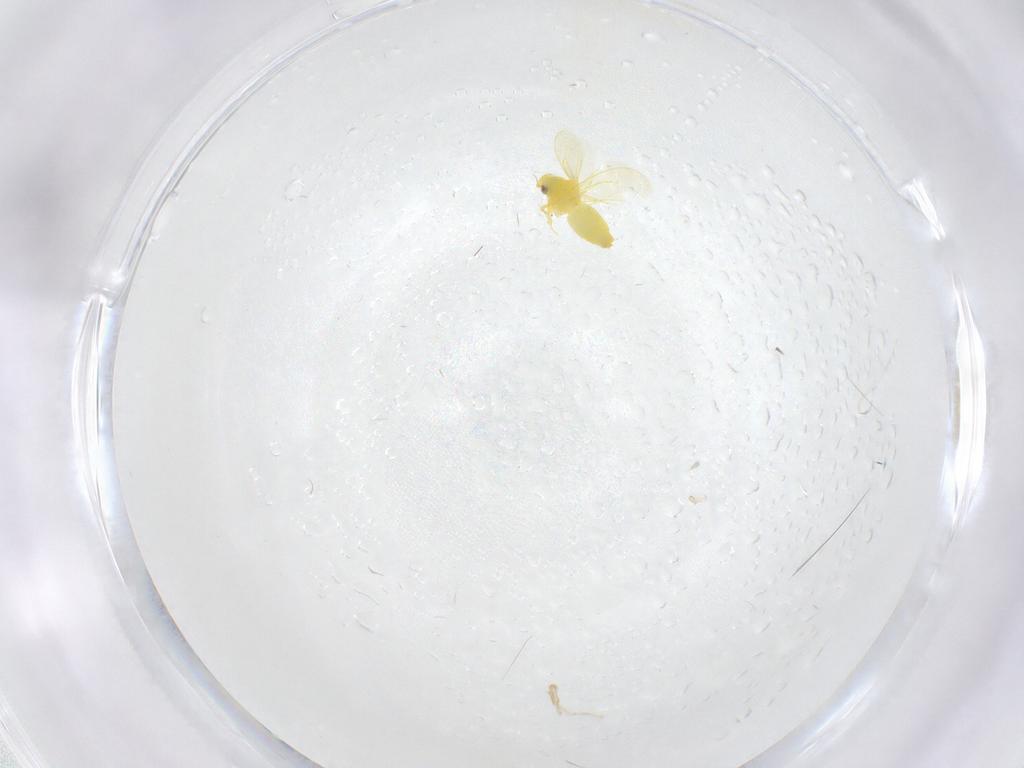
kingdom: Animalia
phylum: Arthropoda
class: Insecta
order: Hemiptera
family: Aleyrodidae
